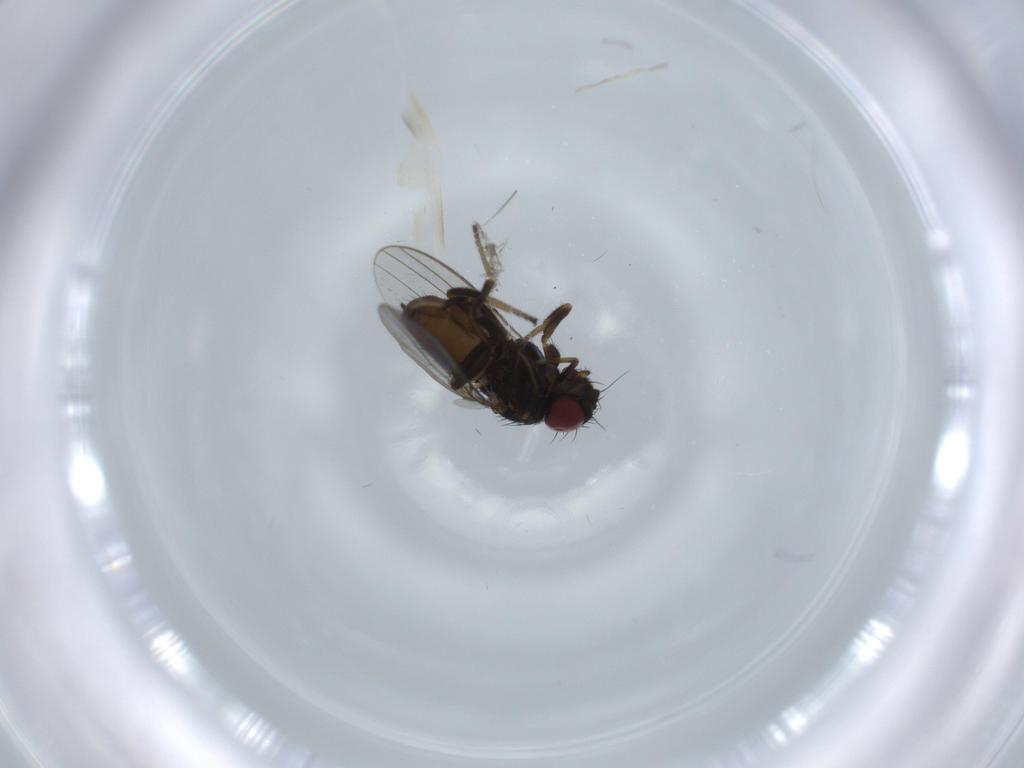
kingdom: Animalia
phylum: Arthropoda
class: Insecta
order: Diptera
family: Milichiidae
